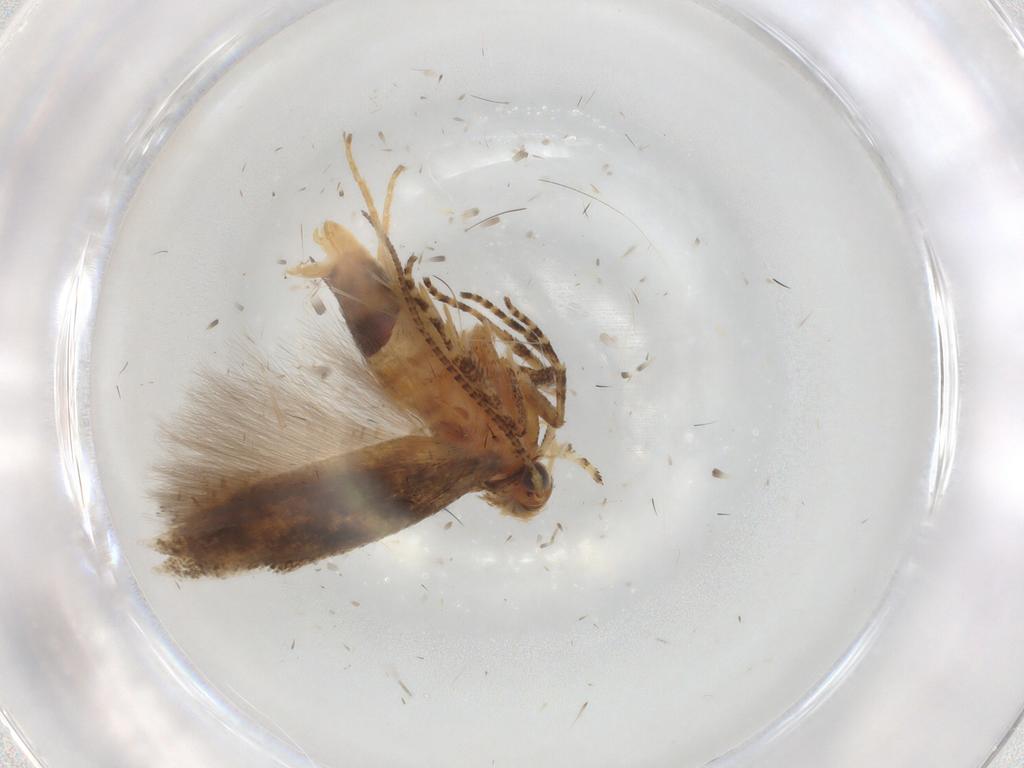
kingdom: Animalia
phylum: Arthropoda
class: Insecta
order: Lepidoptera
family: Gelechiidae
